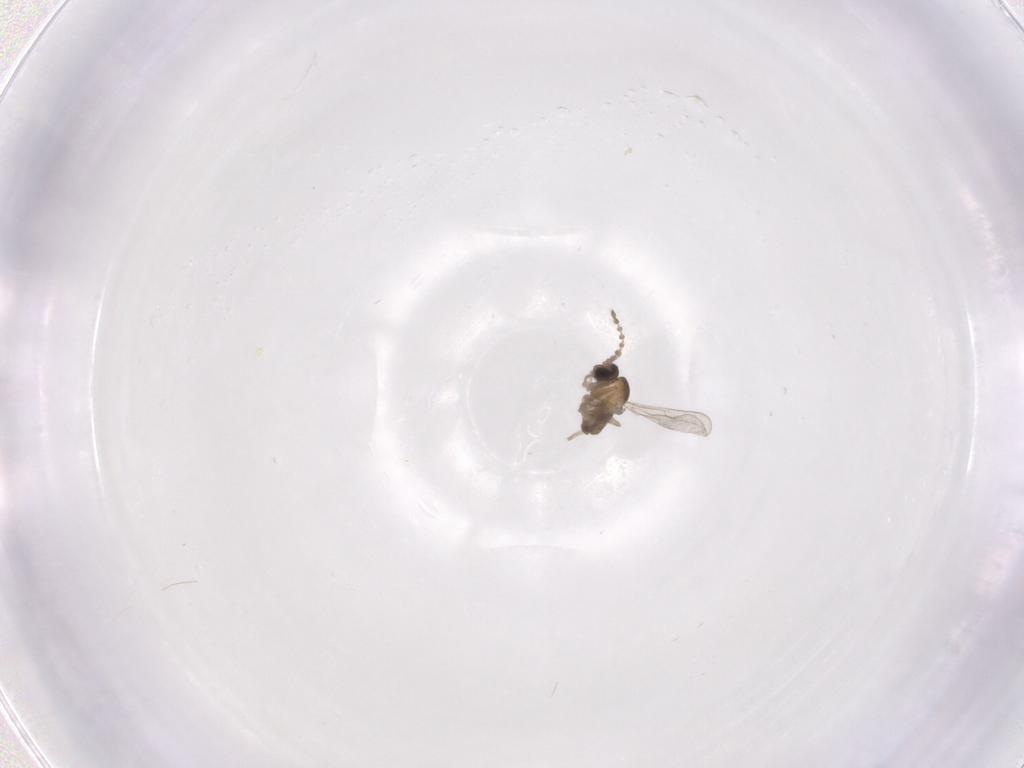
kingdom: Animalia
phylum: Arthropoda
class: Insecta
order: Diptera
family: Cecidomyiidae
